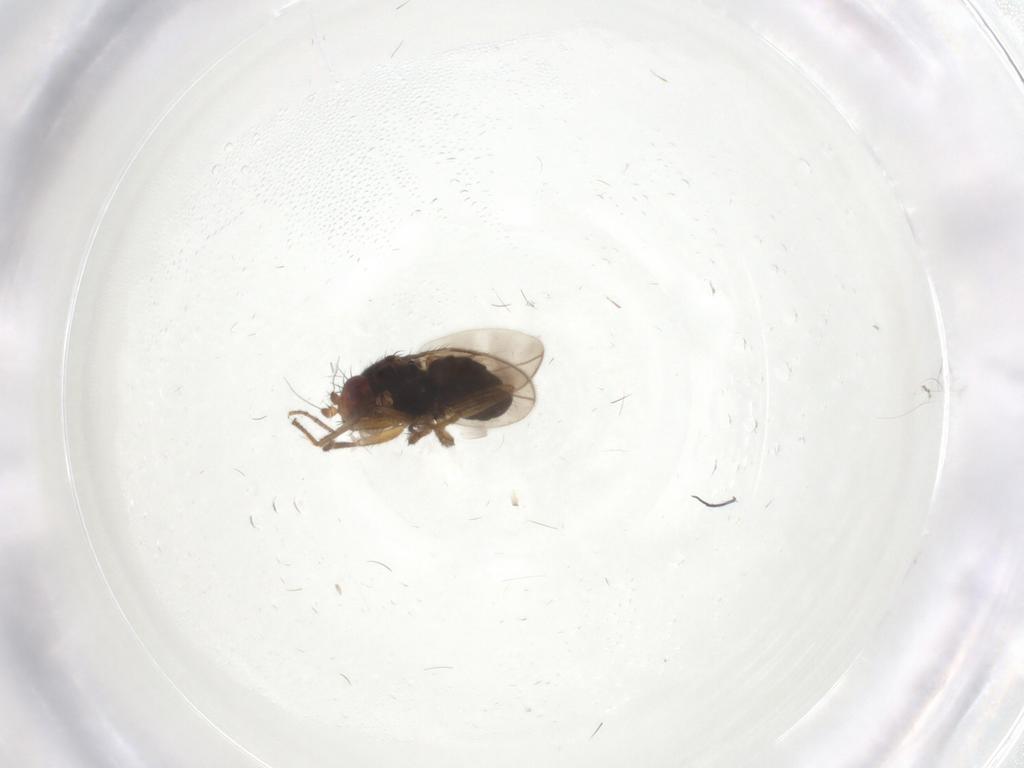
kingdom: Animalia
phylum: Arthropoda
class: Insecta
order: Diptera
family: Sphaeroceridae
